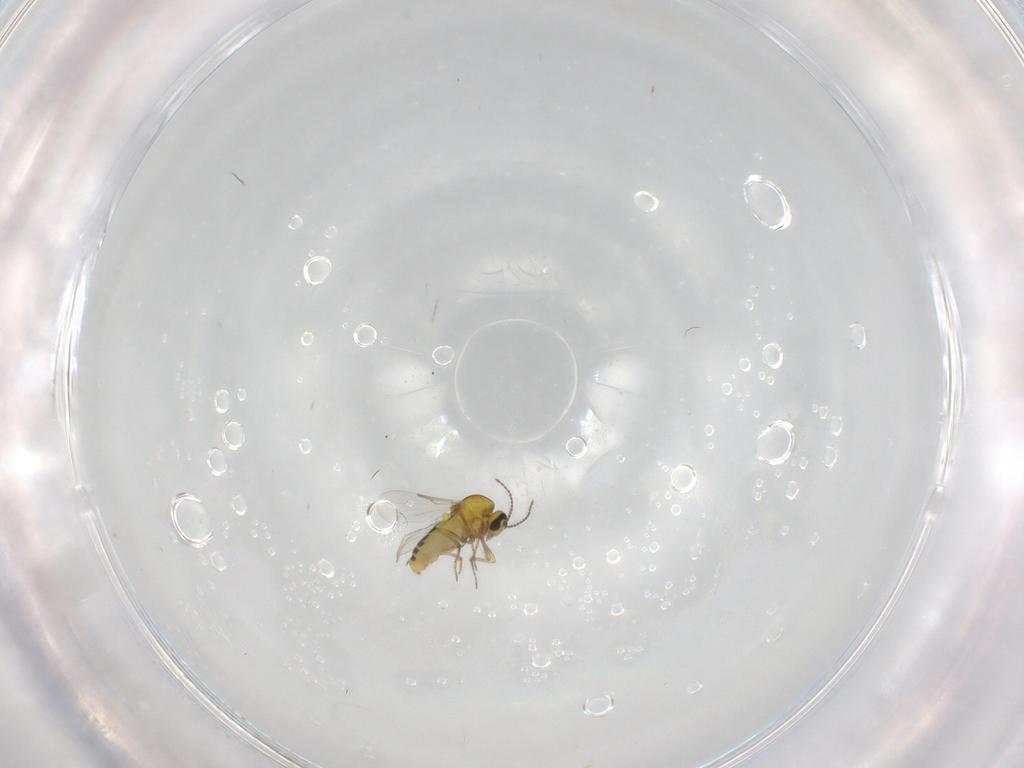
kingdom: Animalia
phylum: Arthropoda
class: Insecta
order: Diptera
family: Ceratopogonidae
